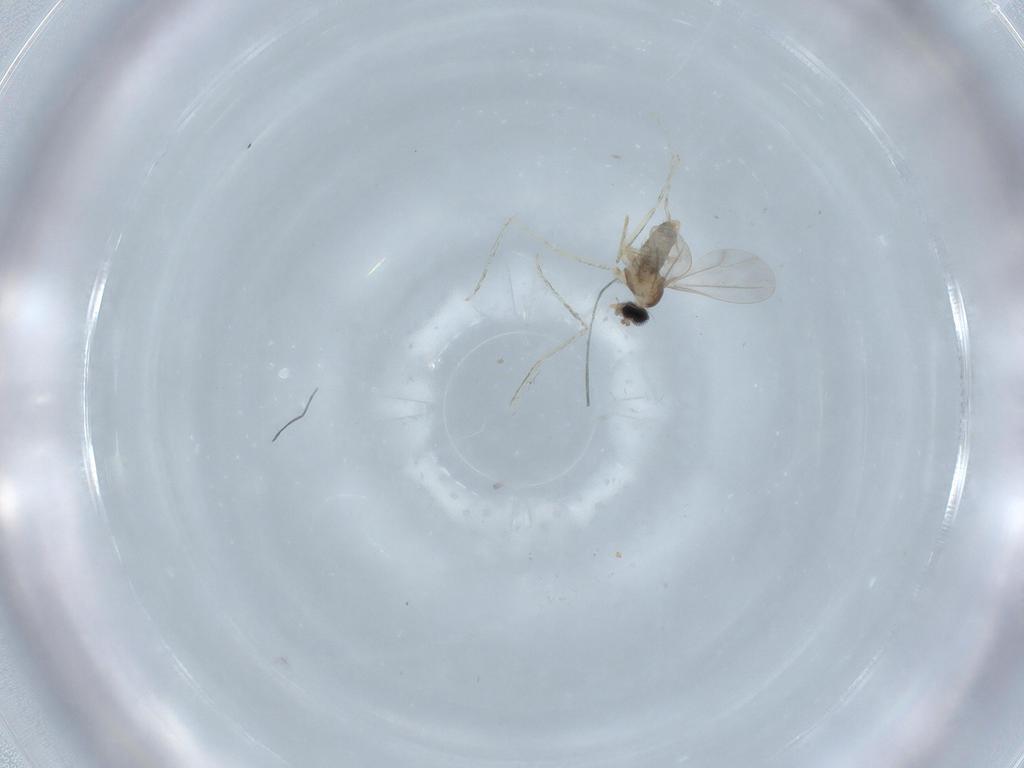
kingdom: Animalia
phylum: Arthropoda
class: Insecta
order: Diptera
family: Cecidomyiidae
